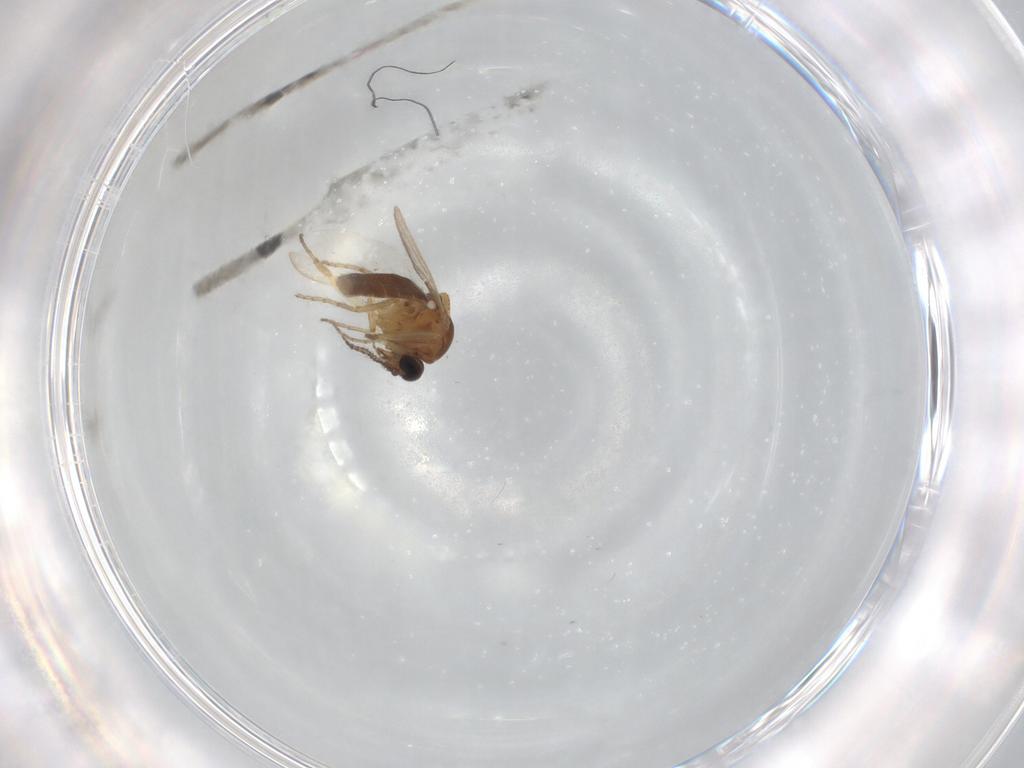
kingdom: Animalia
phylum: Arthropoda
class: Insecta
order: Diptera
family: Ceratopogonidae
